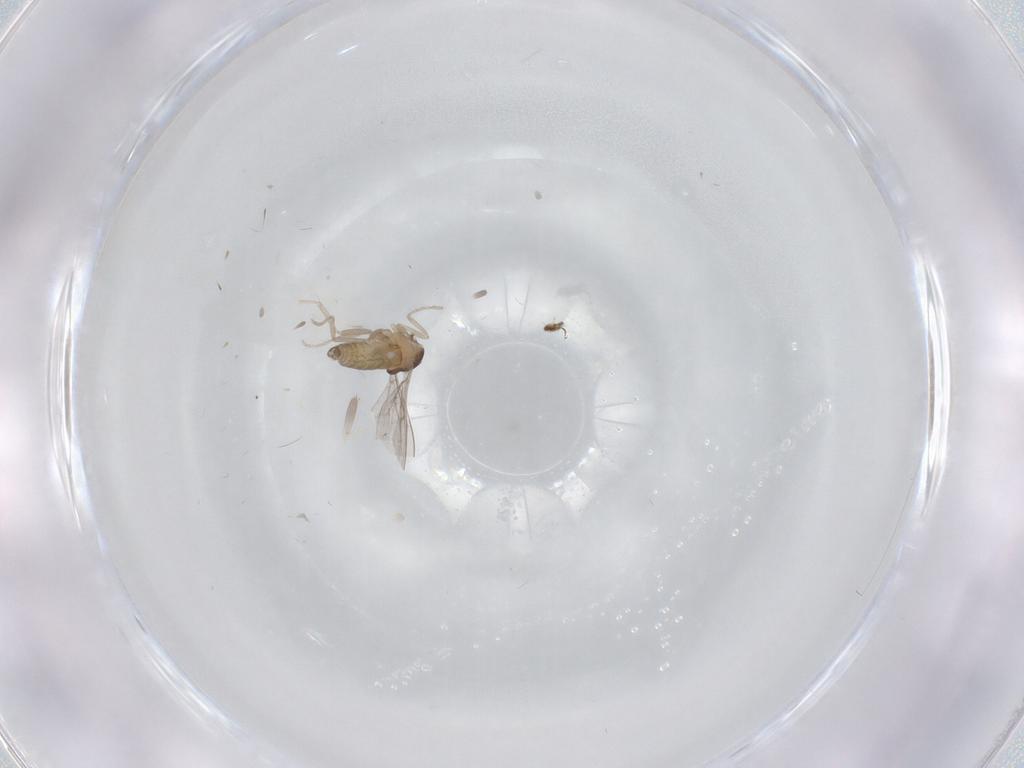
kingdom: Animalia
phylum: Arthropoda
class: Insecta
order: Diptera
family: Cecidomyiidae
